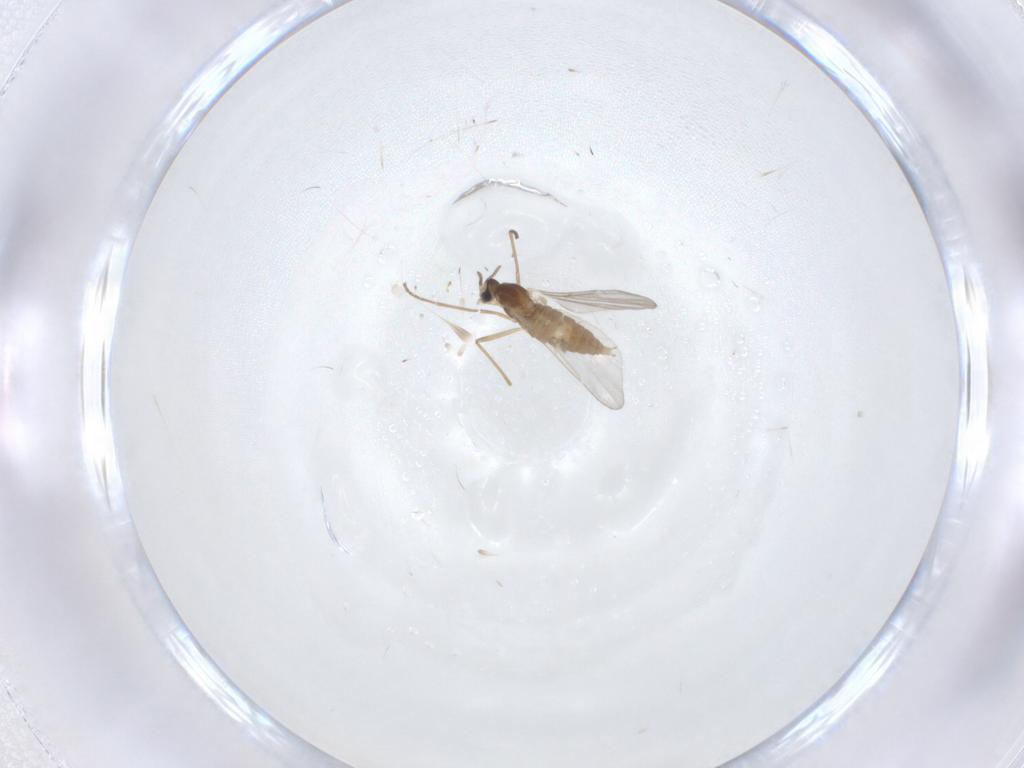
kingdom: Animalia
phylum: Arthropoda
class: Insecta
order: Diptera
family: Cecidomyiidae
